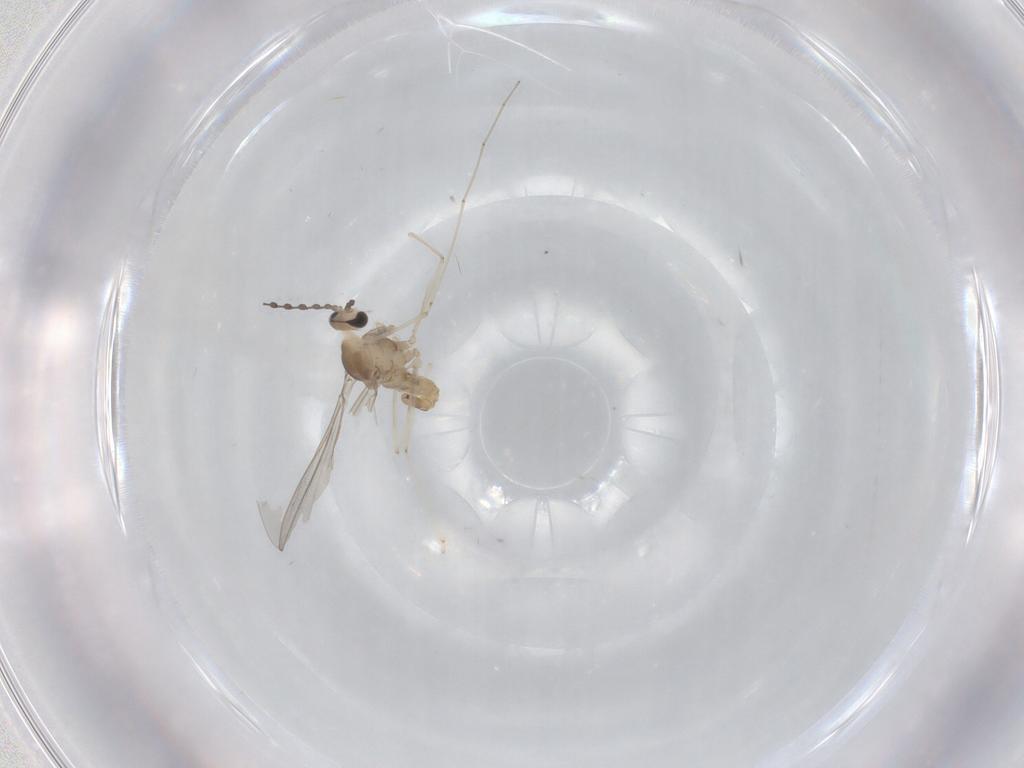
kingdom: Animalia
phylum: Arthropoda
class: Insecta
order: Diptera
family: Cecidomyiidae
